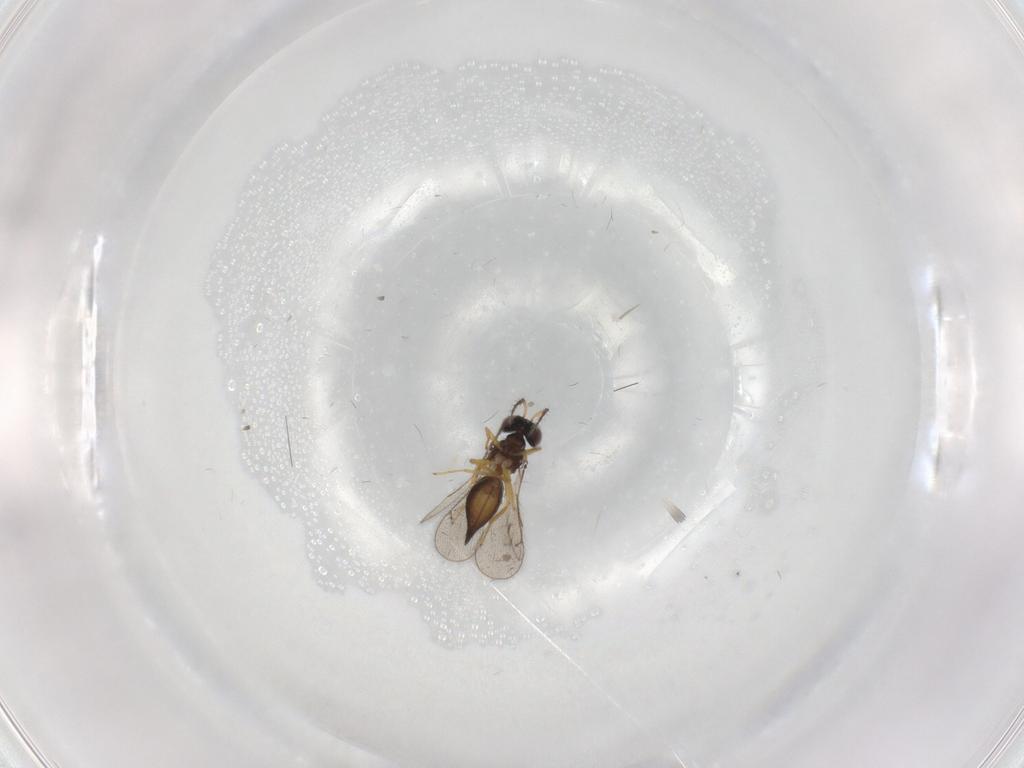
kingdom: Animalia
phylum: Arthropoda
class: Insecta
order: Hymenoptera
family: Eulophidae
